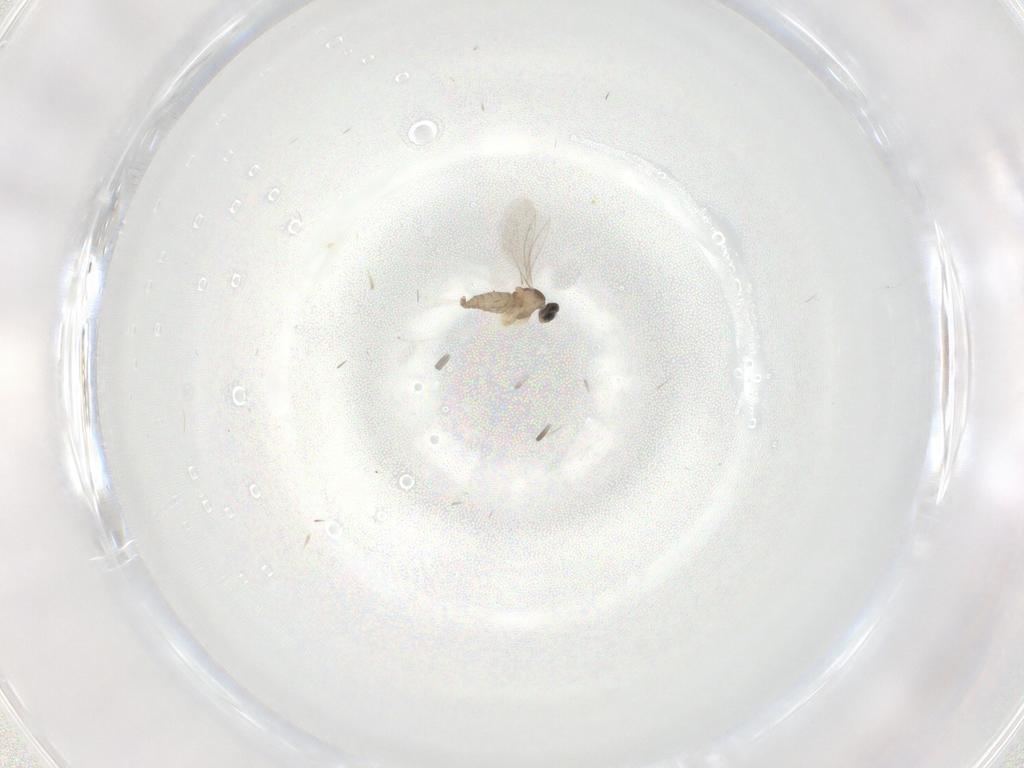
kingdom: Animalia
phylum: Arthropoda
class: Insecta
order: Diptera
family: Cecidomyiidae
